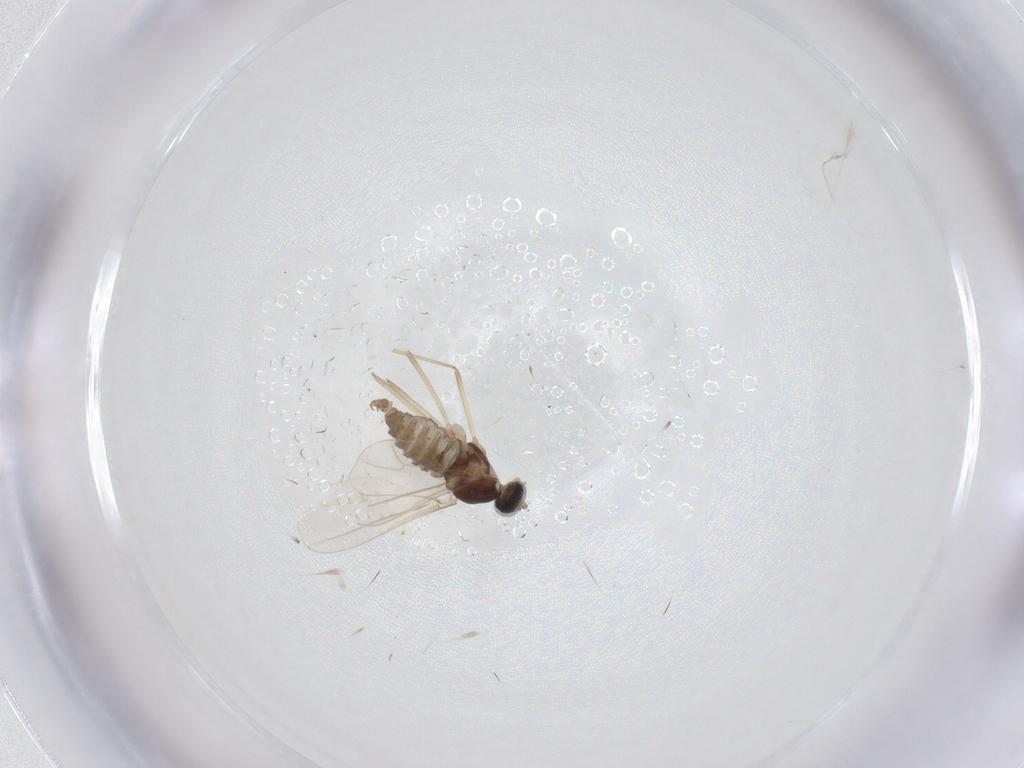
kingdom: Animalia
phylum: Arthropoda
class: Insecta
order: Diptera
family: Cecidomyiidae
